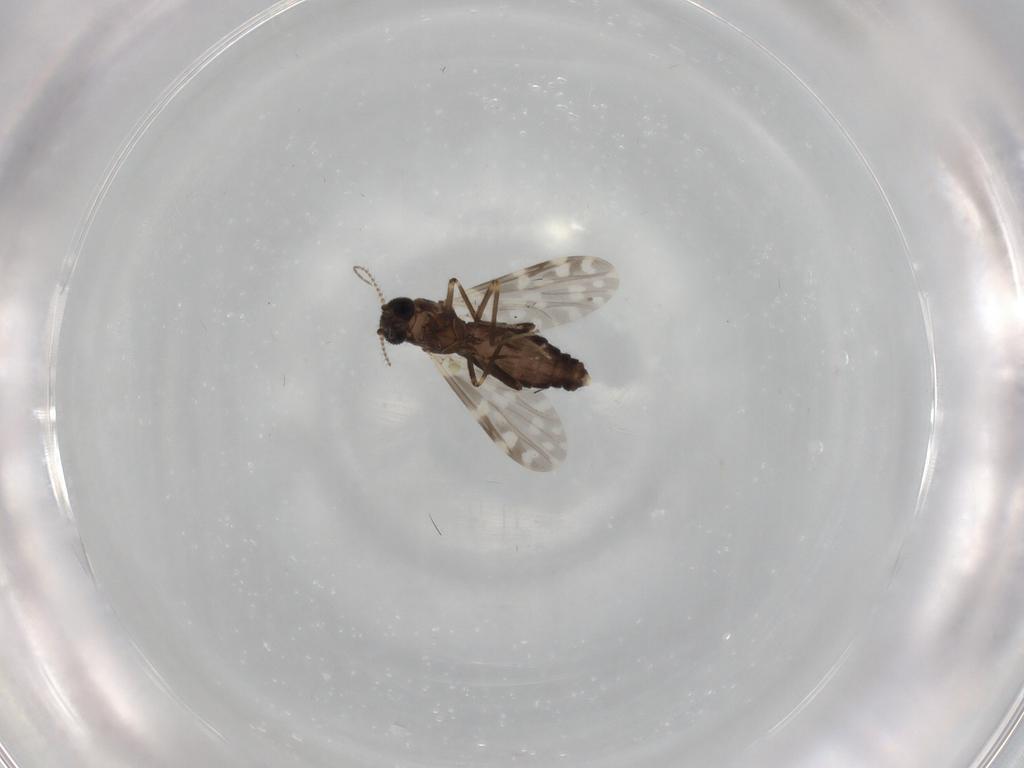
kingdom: Animalia
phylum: Arthropoda
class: Insecta
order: Diptera
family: Ceratopogonidae
